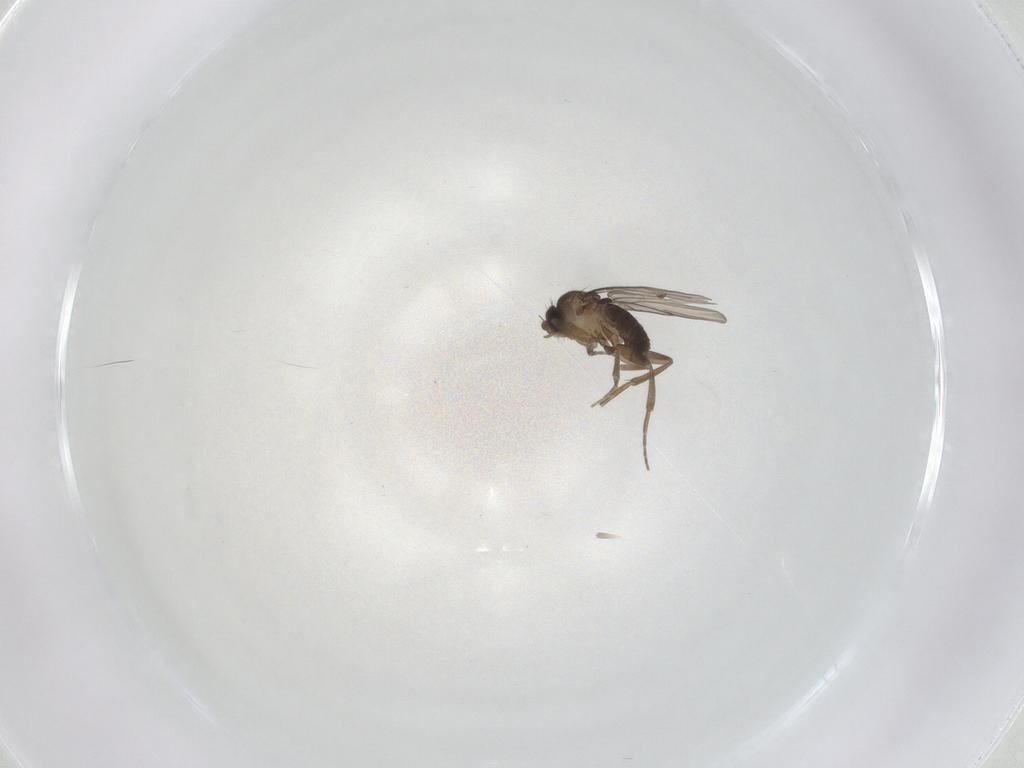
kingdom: Animalia
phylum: Arthropoda
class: Insecta
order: Diptera
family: Phoridae
